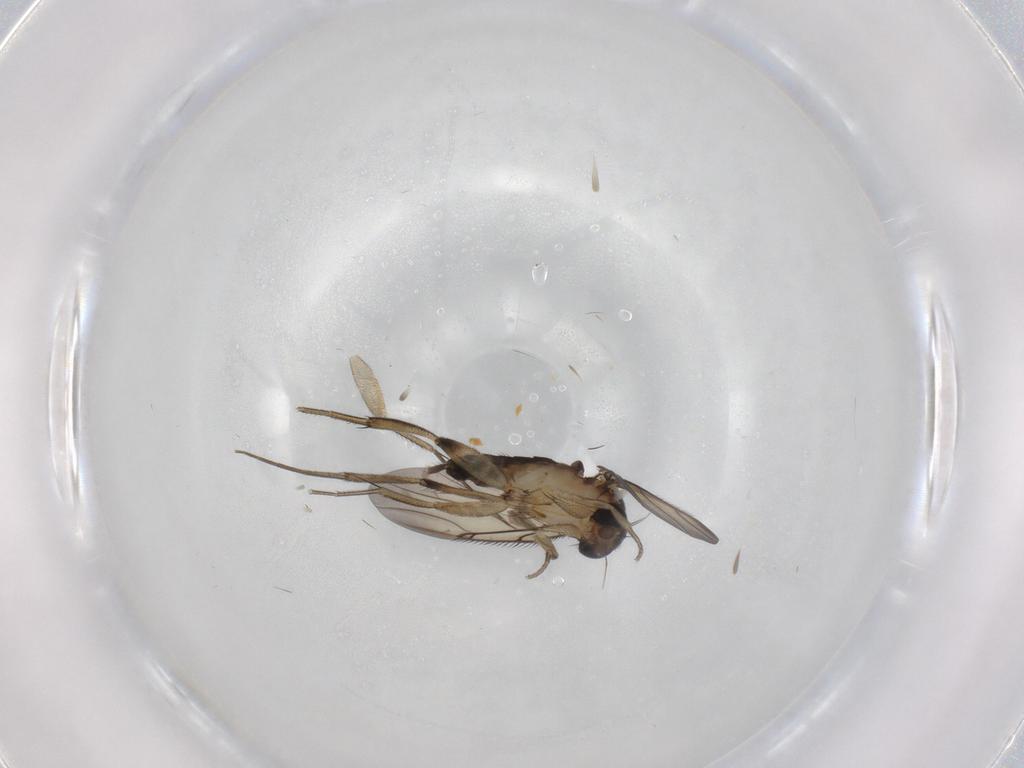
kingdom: Animalia
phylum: Arthropoda
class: Insecta
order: Diptera
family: Phoridae
